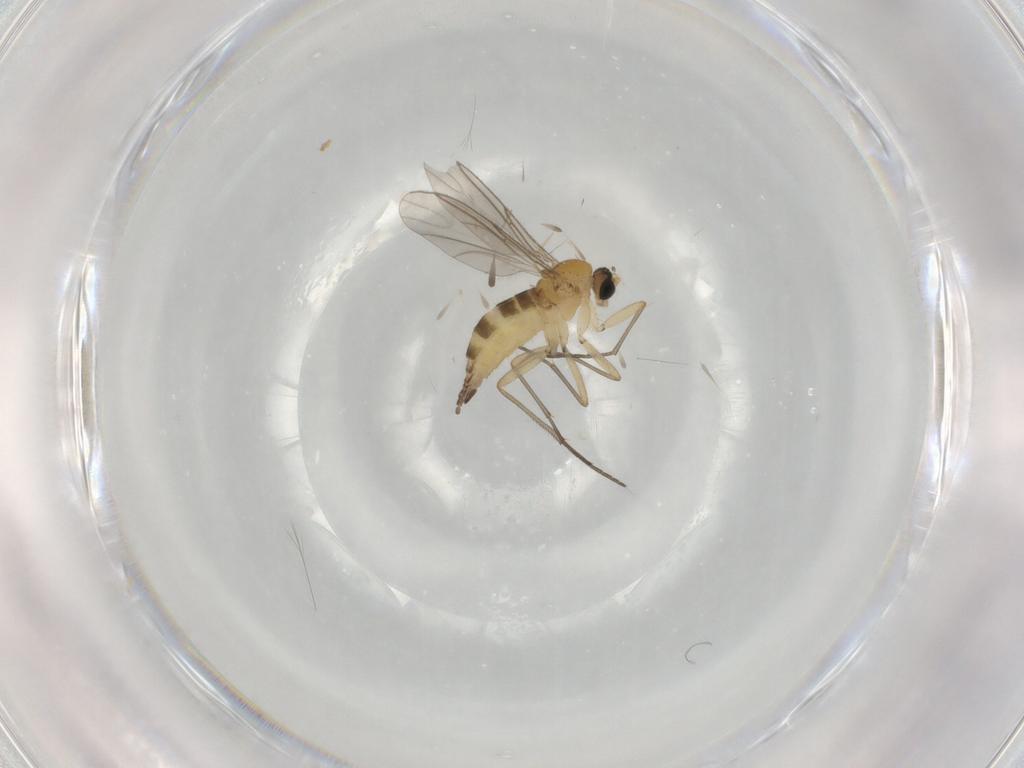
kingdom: Animalia
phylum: Arthropoda
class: Insecta
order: Diptera
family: Sciaridae
